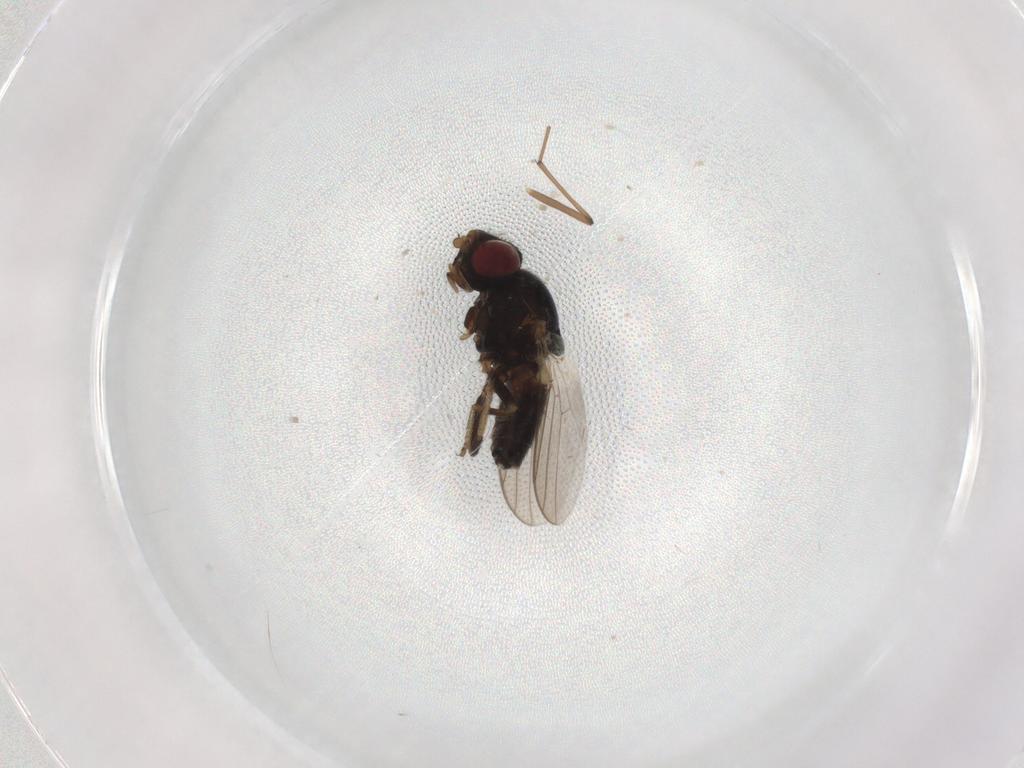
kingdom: Animalia
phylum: Arthropoda
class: Insecta
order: Diptera
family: Chloropidae
